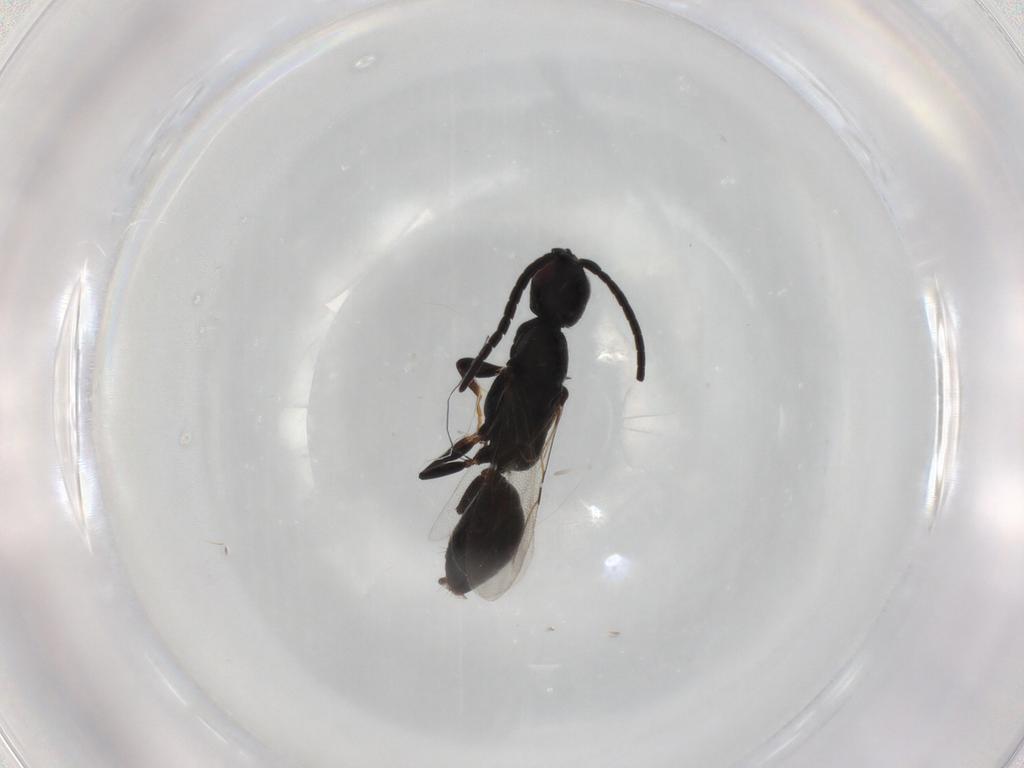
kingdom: Animalia
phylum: Arthropoda
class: Insecta
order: Hymenoptera
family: Bethylidae
